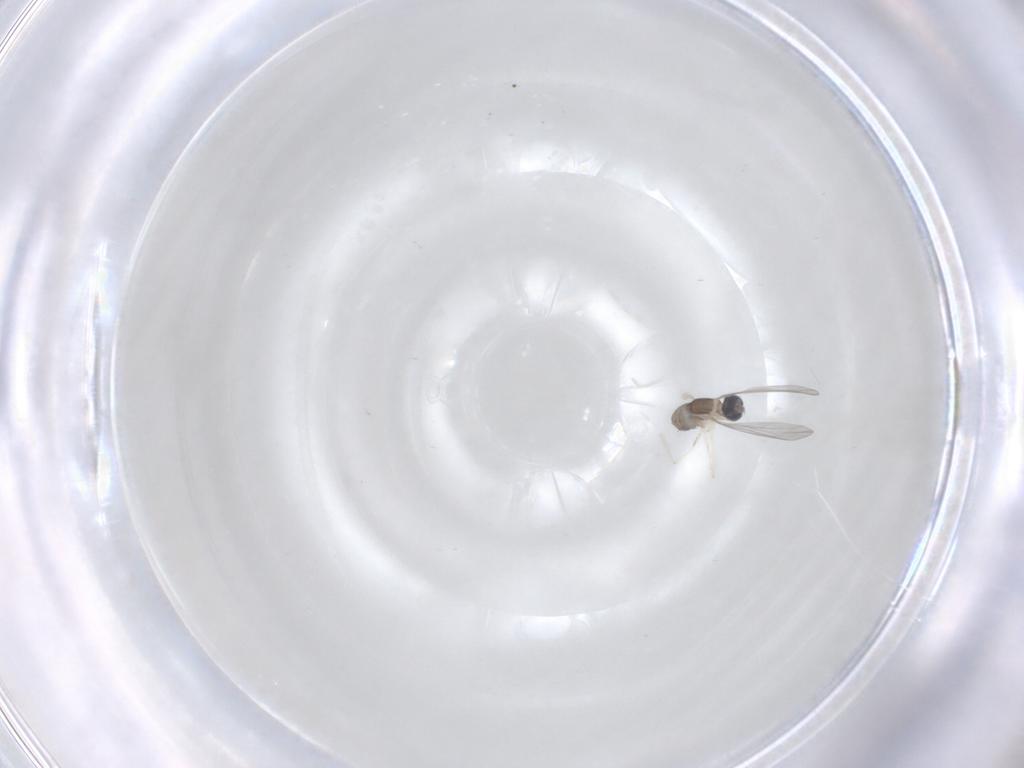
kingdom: Animalia
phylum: Arthropoda
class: Insecta
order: Diptera
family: Cecidomyiidae
